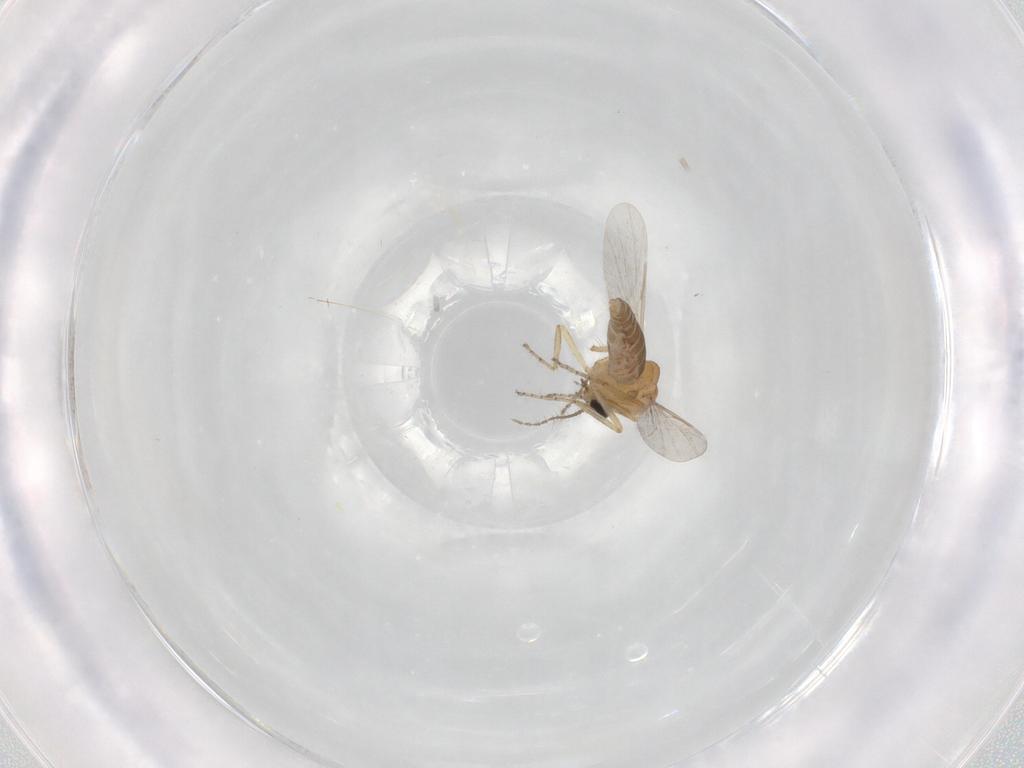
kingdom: Animalia
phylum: Arthropoda
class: Insecta
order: Diptera
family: Ceratopogonidae
